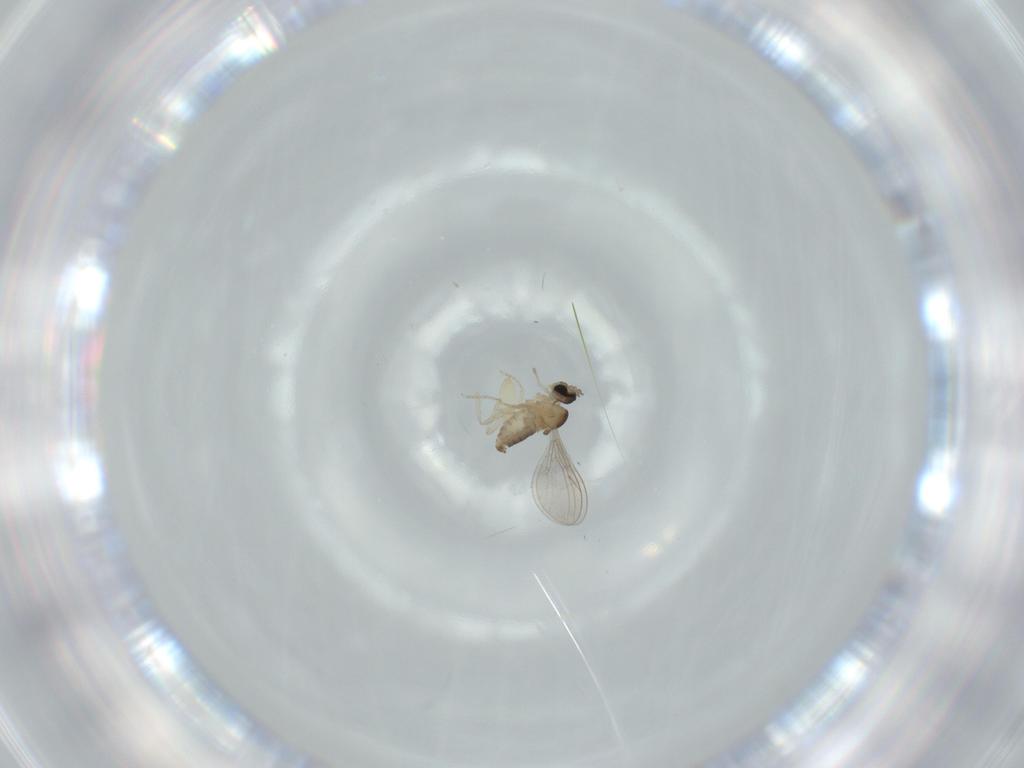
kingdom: Animalia
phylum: Arthropoda
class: Insecta
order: Diptera
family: Cecidomyiidae
